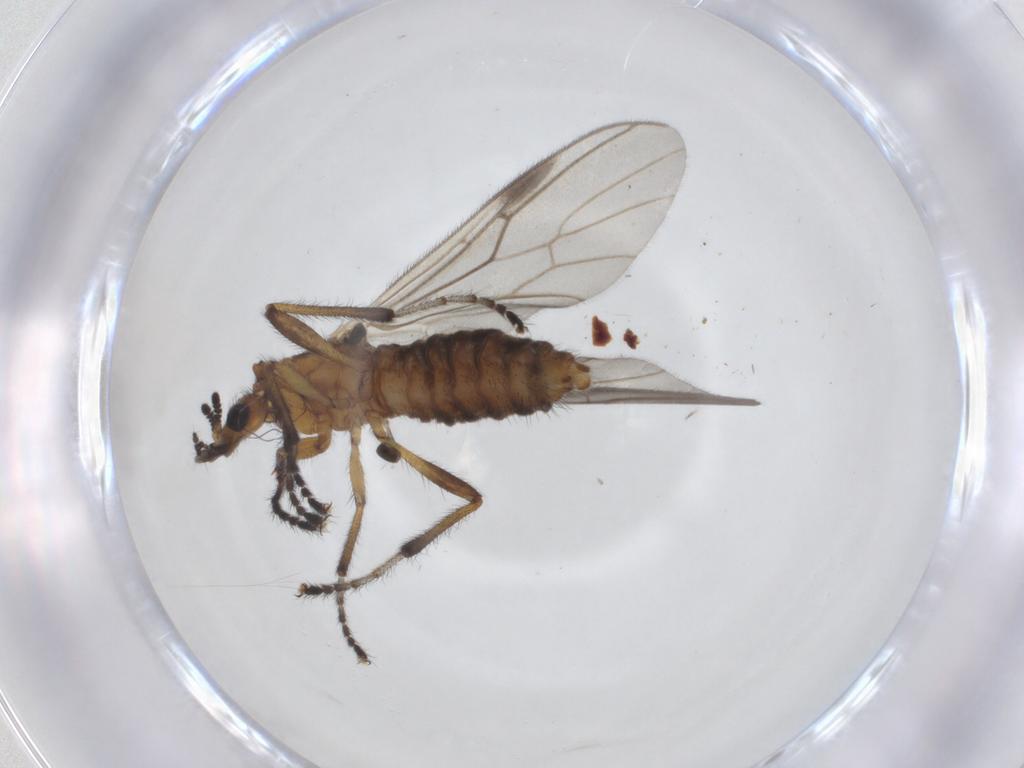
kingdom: Animalia
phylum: Arthropoda
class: Insecta
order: Diptera
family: Bibionidae
